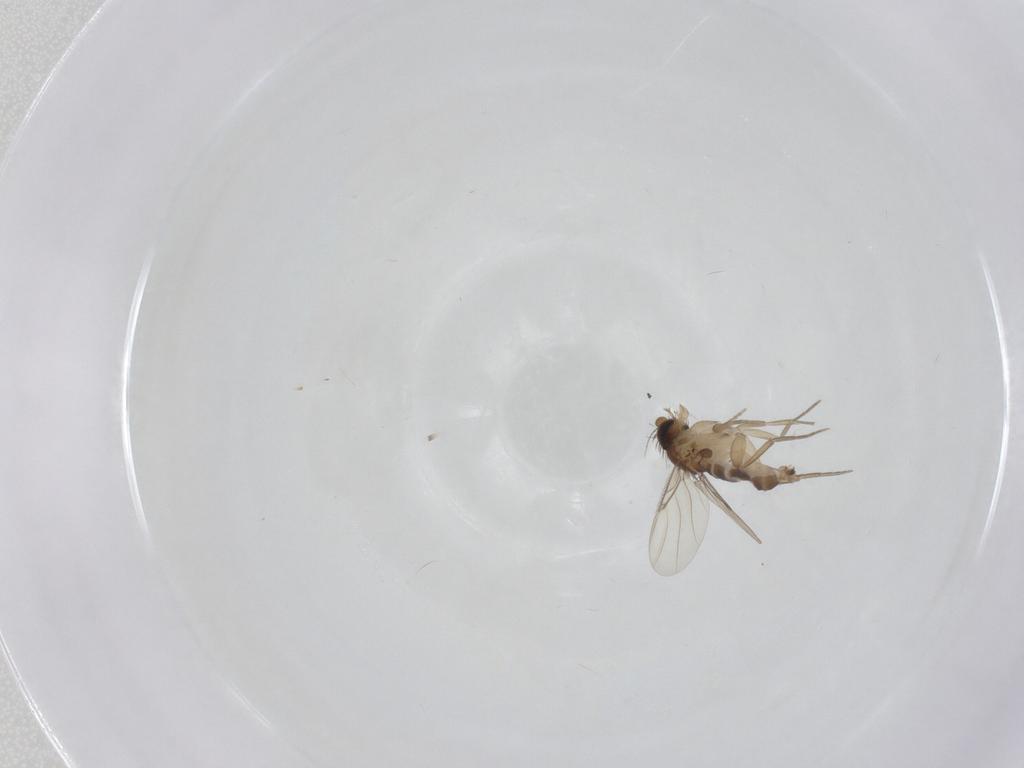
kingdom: Animalia
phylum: Arthropoda
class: Insecta
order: Diptera
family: Phoridae
